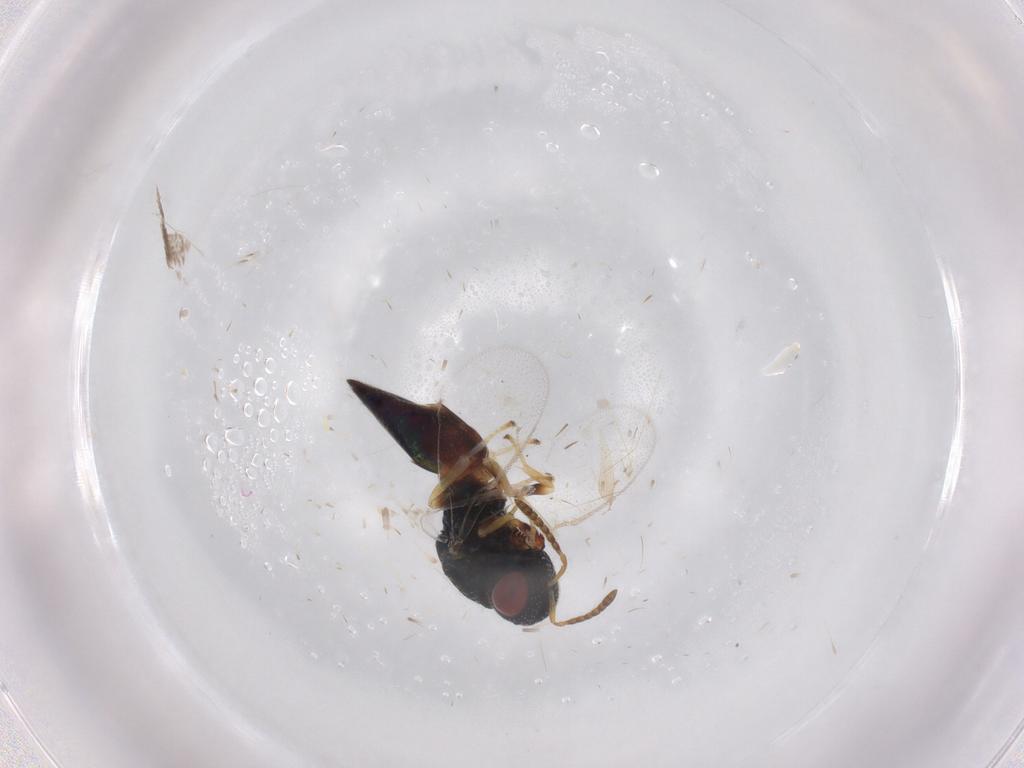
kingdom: Animalia
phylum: Arthropoda
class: Insecta
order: Hymenoptera
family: Pteromalidae
